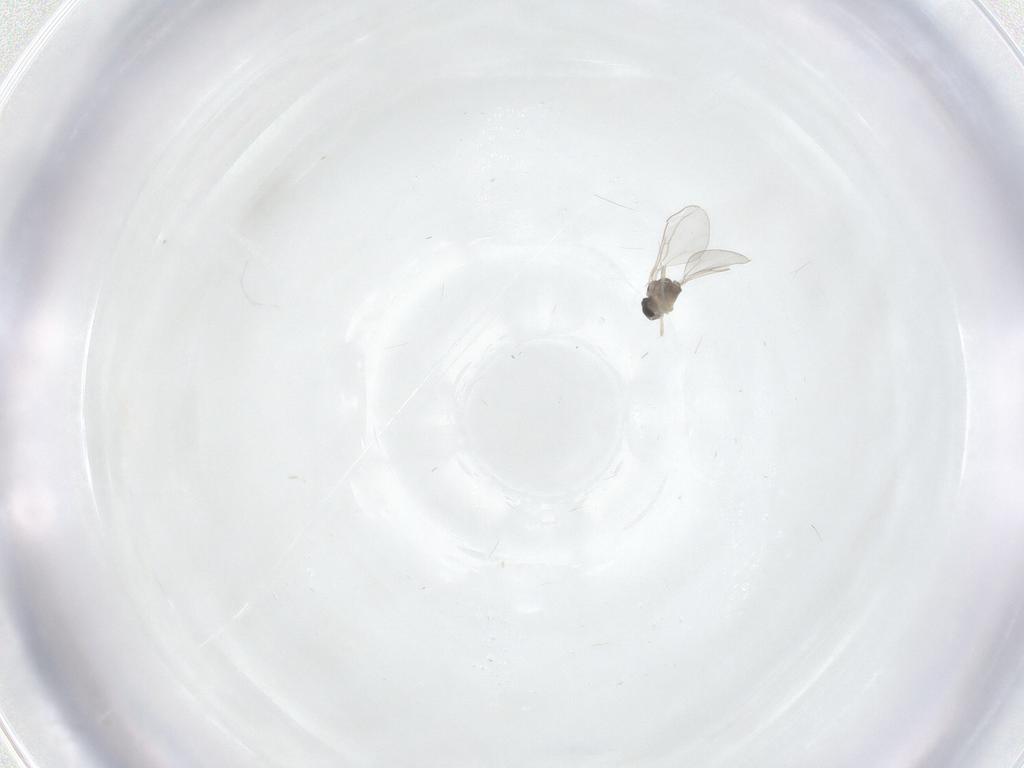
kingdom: Animalia
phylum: Arthropoda
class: Insecta
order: Diptera
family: Cecidomyiidae
